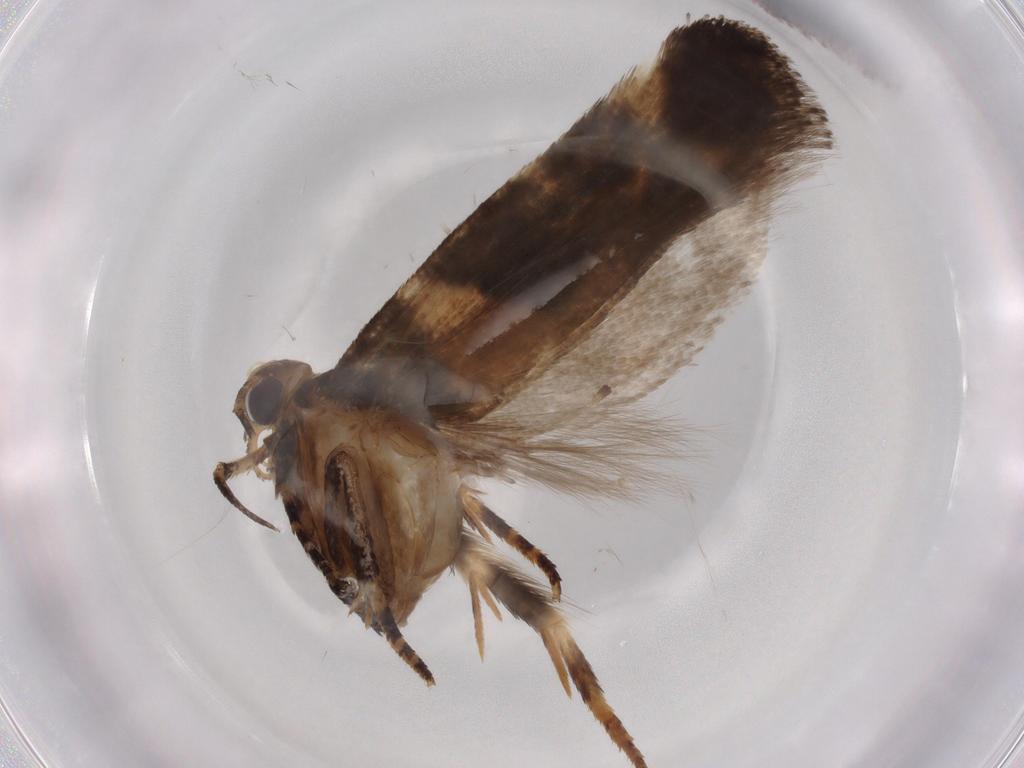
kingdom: Animalia
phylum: Arthropoda
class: Insecta
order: Lepidoptera
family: Gelechiidae
